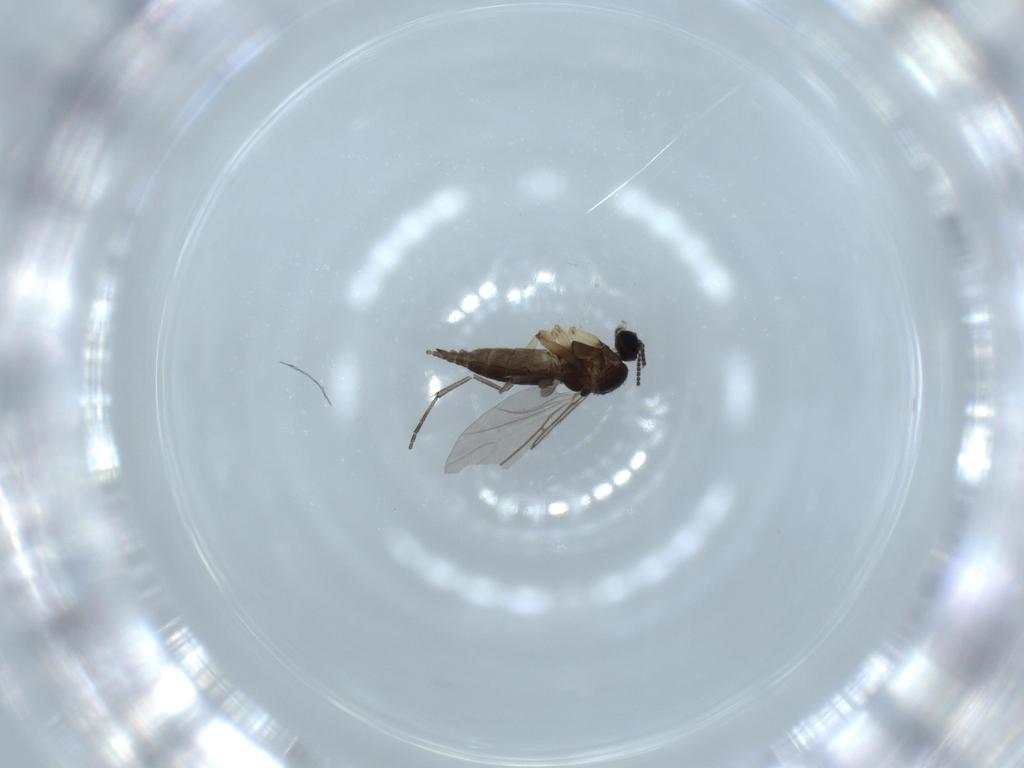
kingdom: Animalia
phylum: Arthropoda
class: Insecta
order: Diptera
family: Sciaridae
